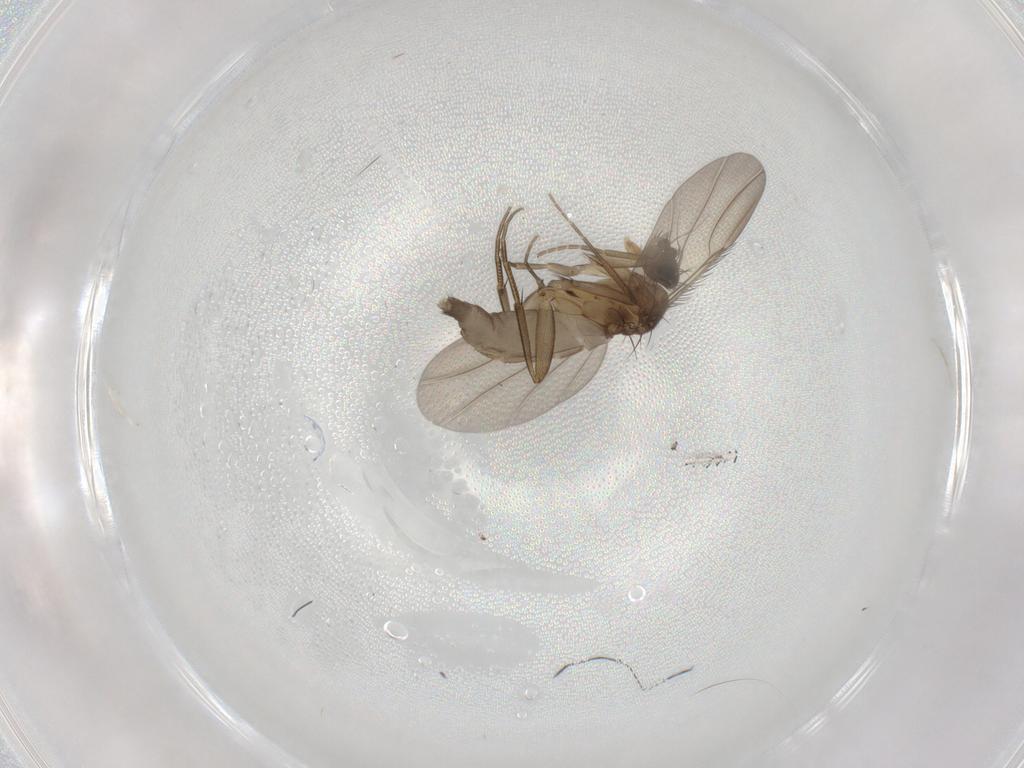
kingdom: Animalia
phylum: Arthropoda
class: Insecta
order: Diptera
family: Phoridae
